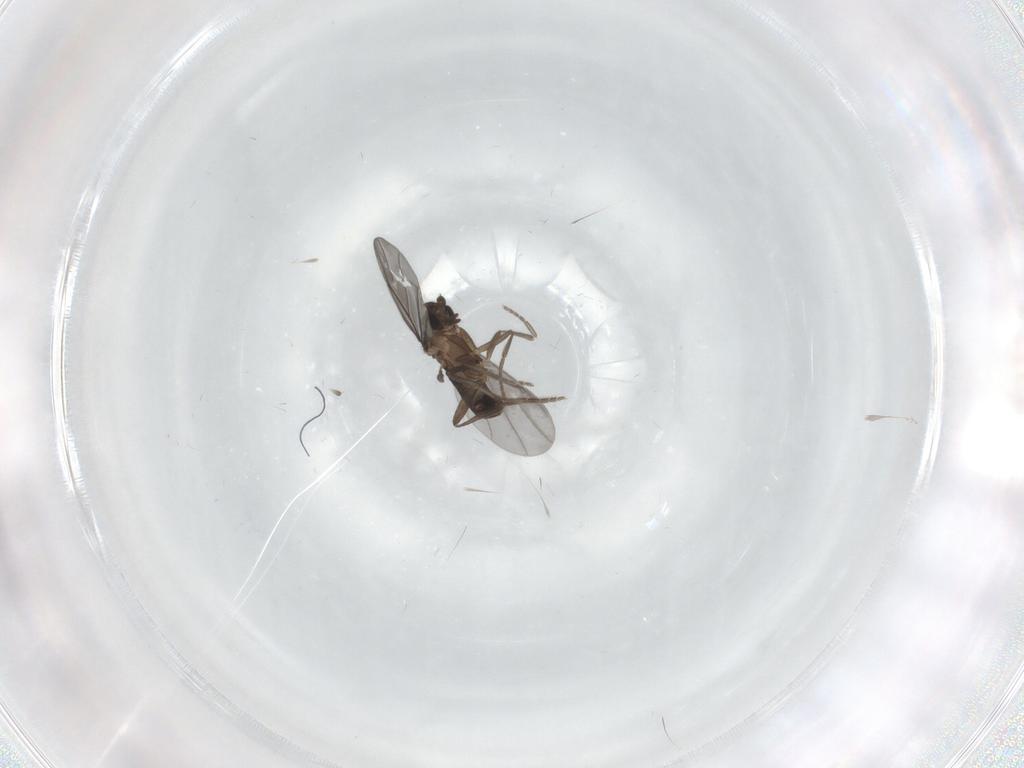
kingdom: Animalia
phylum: Arthropoda
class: Insecta
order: Diptera
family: Phoridae
